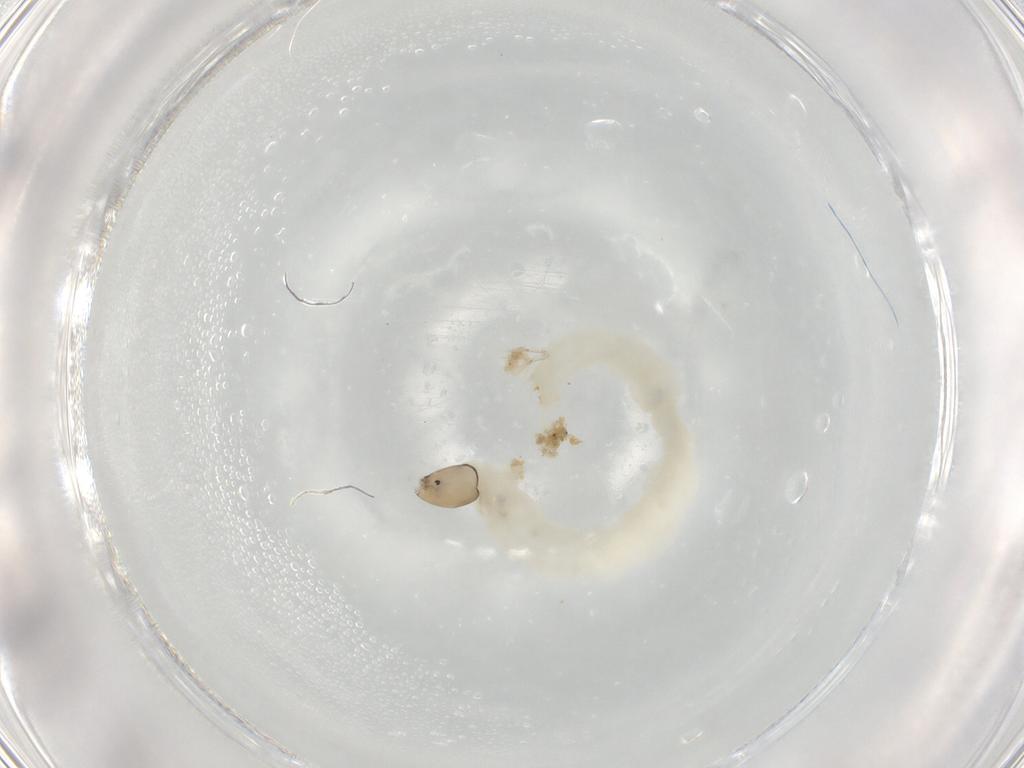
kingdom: Animalia
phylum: Arthropoda
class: Insecta
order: Diptera
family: Chironomidae
